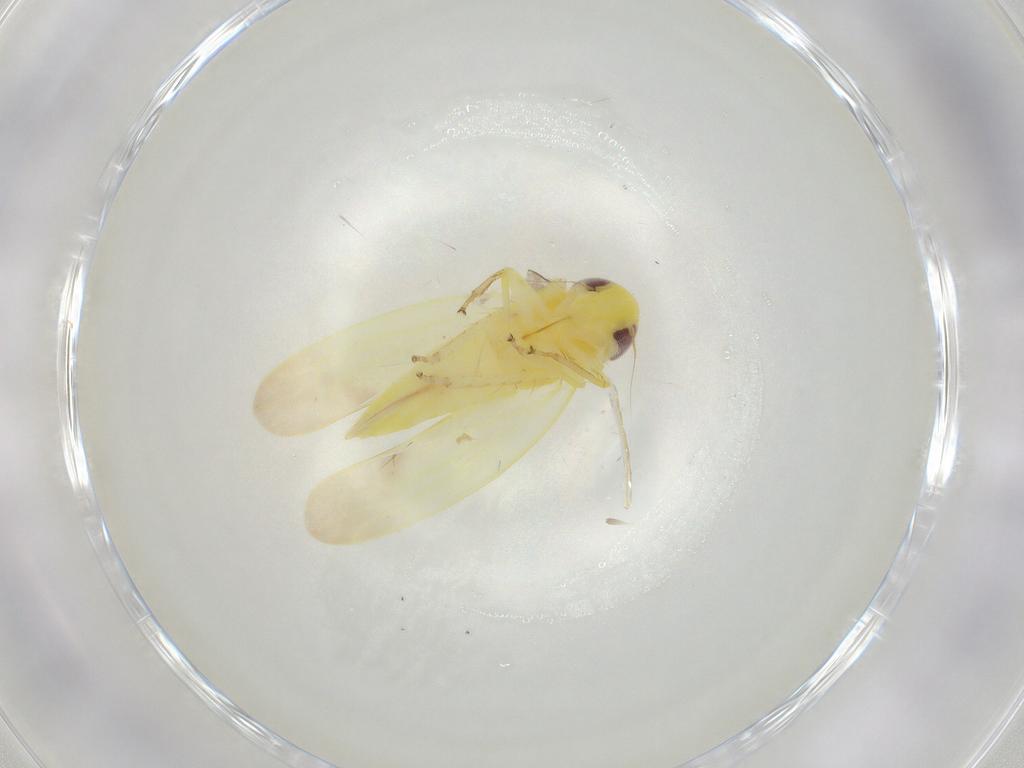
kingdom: Animalia
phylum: Arthropoda
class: Insecta
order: Hemiptera
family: Cicadellidae
